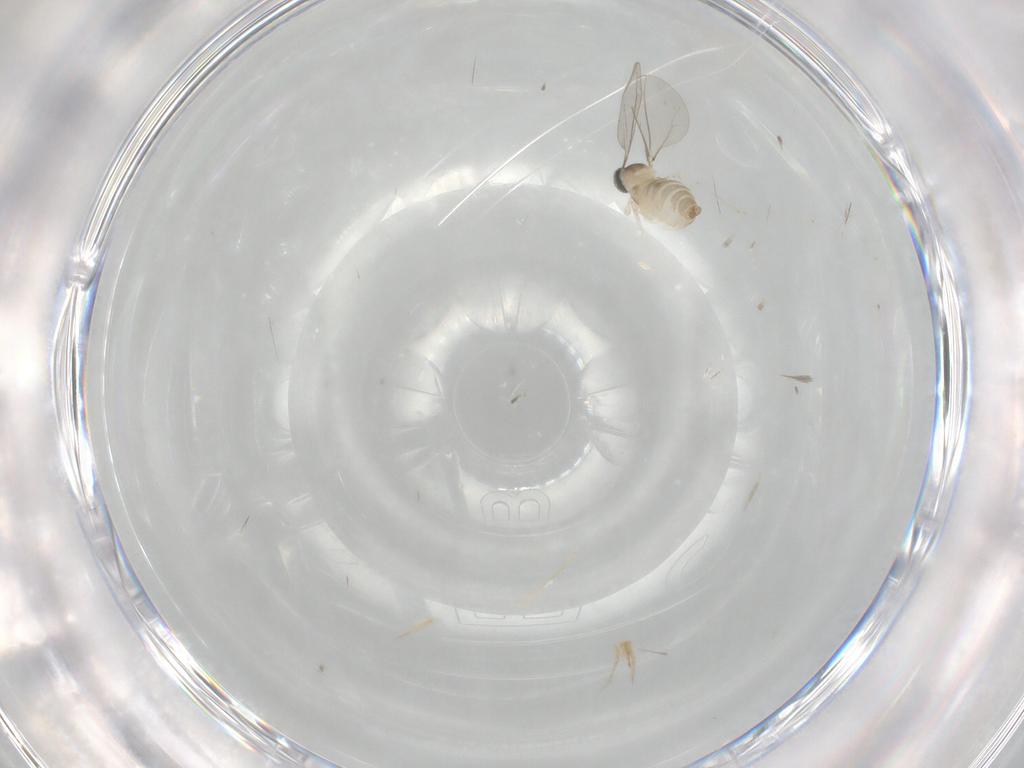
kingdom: Animalia
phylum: Arthropoda
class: Insecta
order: Diptera
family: Cecidomyiidae
